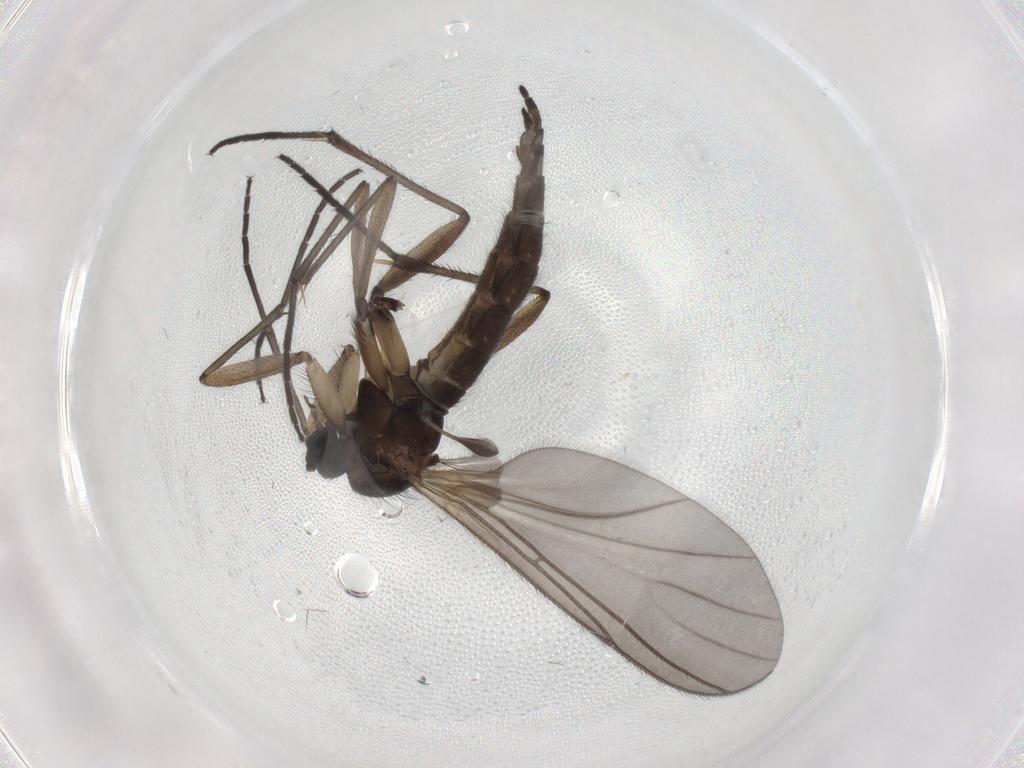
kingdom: Animalia
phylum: Arthropoda
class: Insecta
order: Diptera
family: Sciaridae
